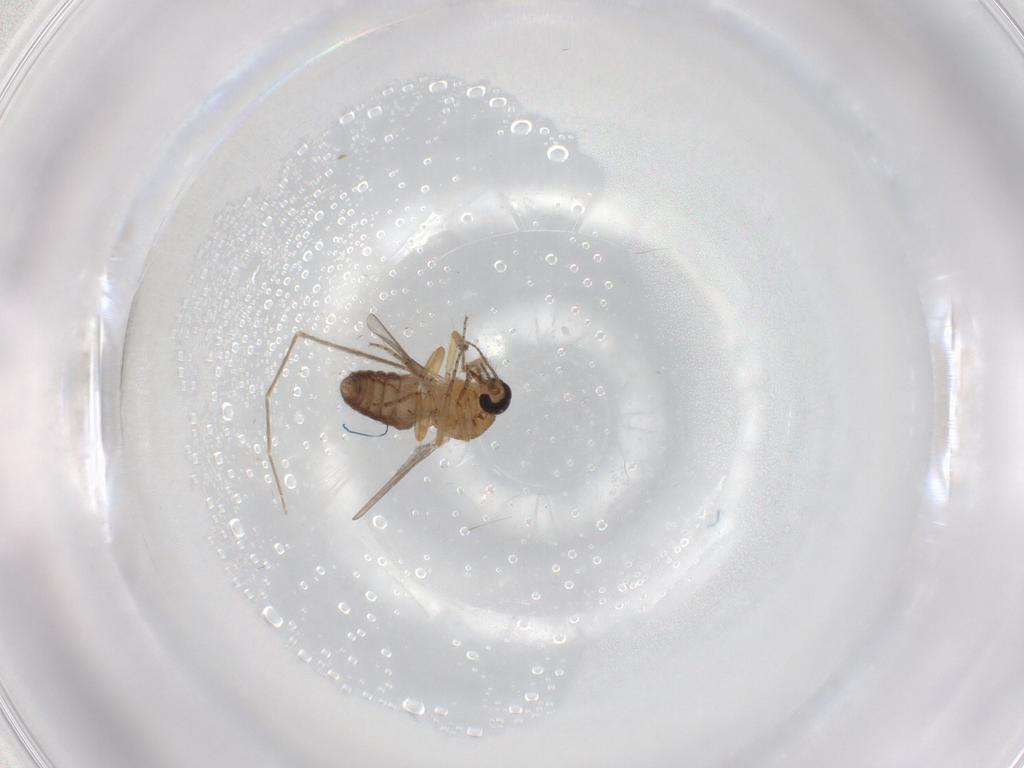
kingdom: Animalia
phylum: Arthropoda
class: Insecta
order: Diptera
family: Ceratopogonidae
